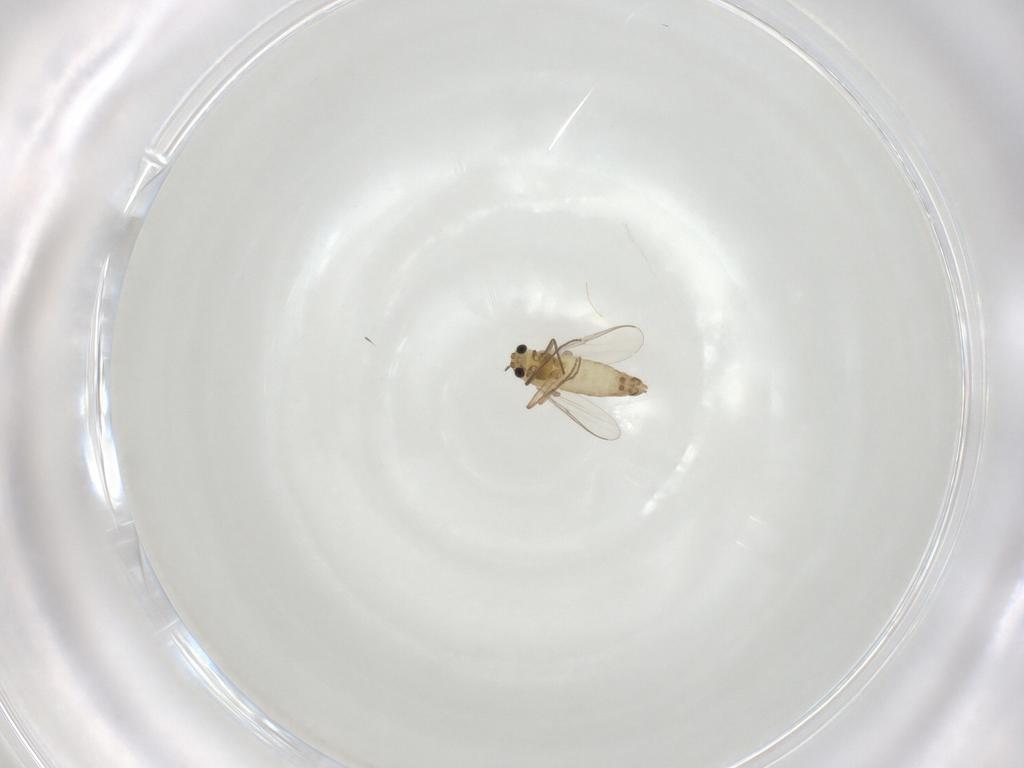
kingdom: Animalia
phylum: Arthropoda
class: Insecta
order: Diptera
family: Chironomidae
